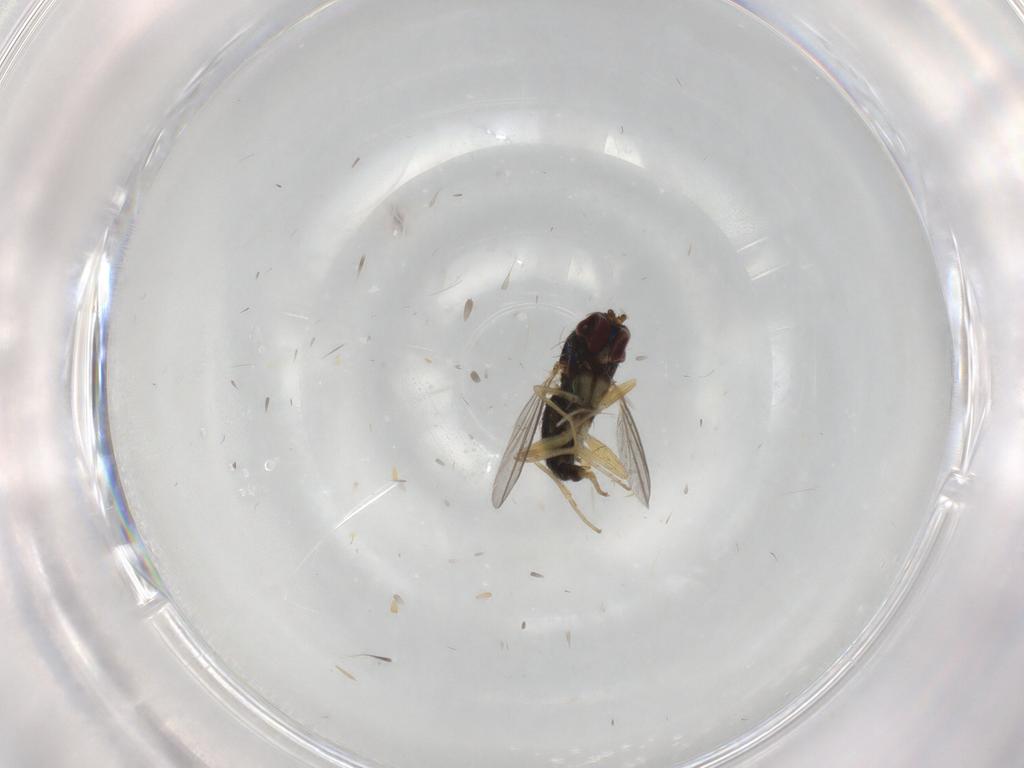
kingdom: Animalia
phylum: Arthropoda
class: Insecta
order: Diptera
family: Dolichopodidae
